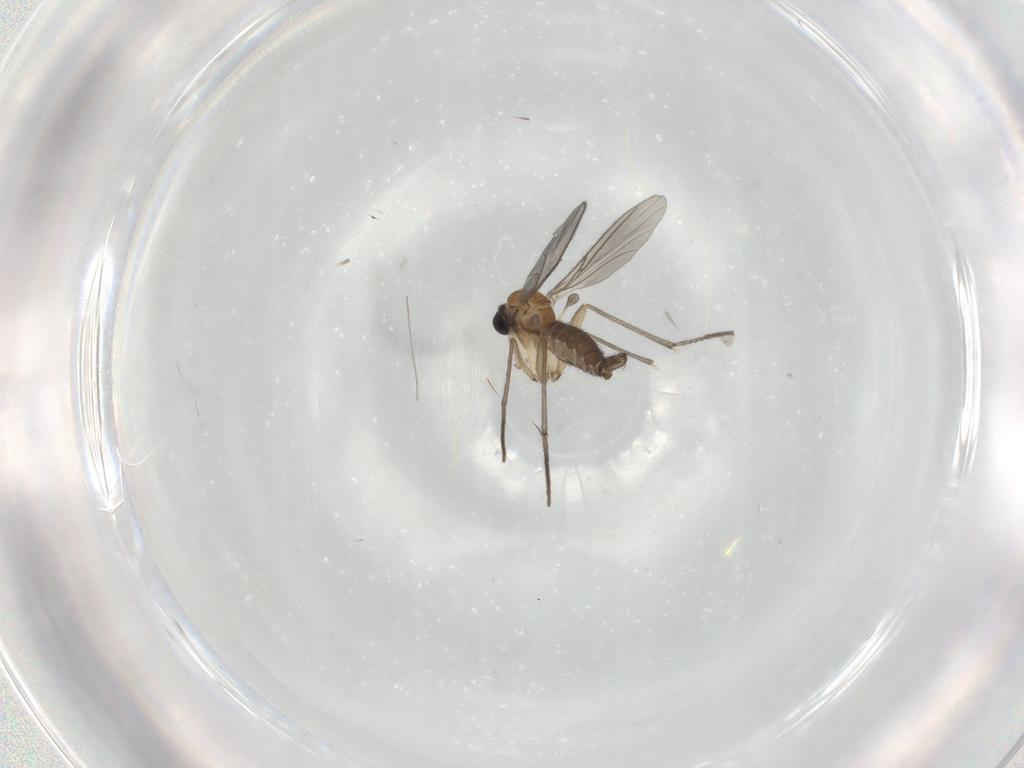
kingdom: Animalia
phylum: Arthropoda
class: Insecta
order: Diptera
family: Sciaridae
